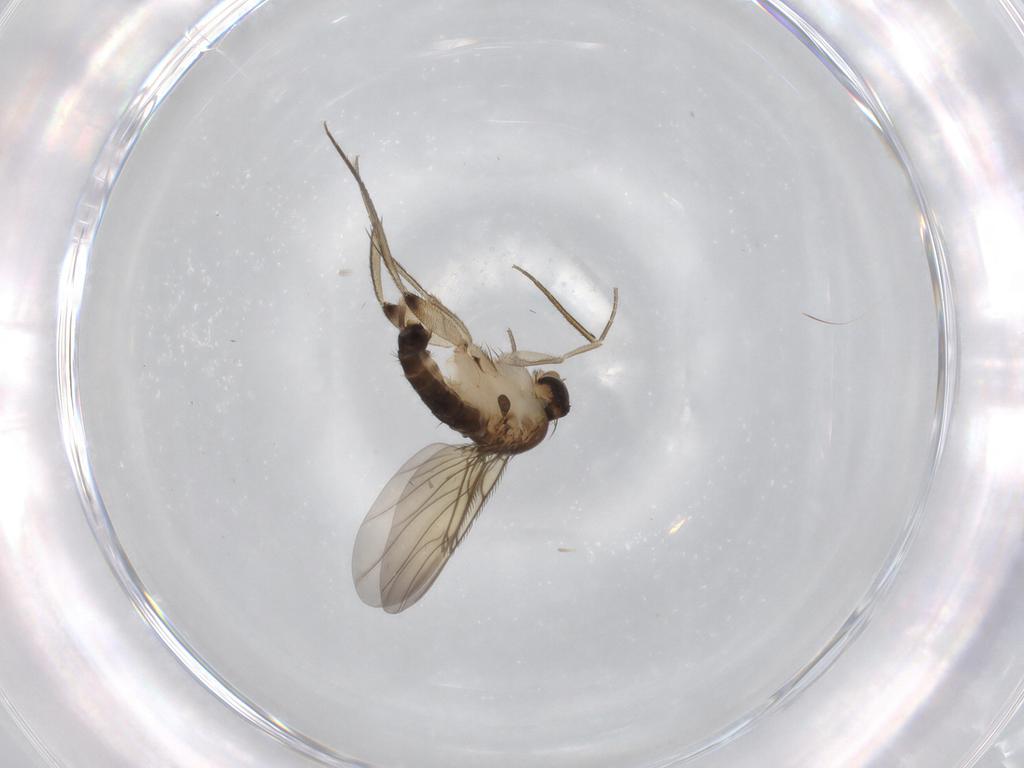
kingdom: Animalia
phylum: Arthropoda
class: Insecta
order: Diptera
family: Phoridae
